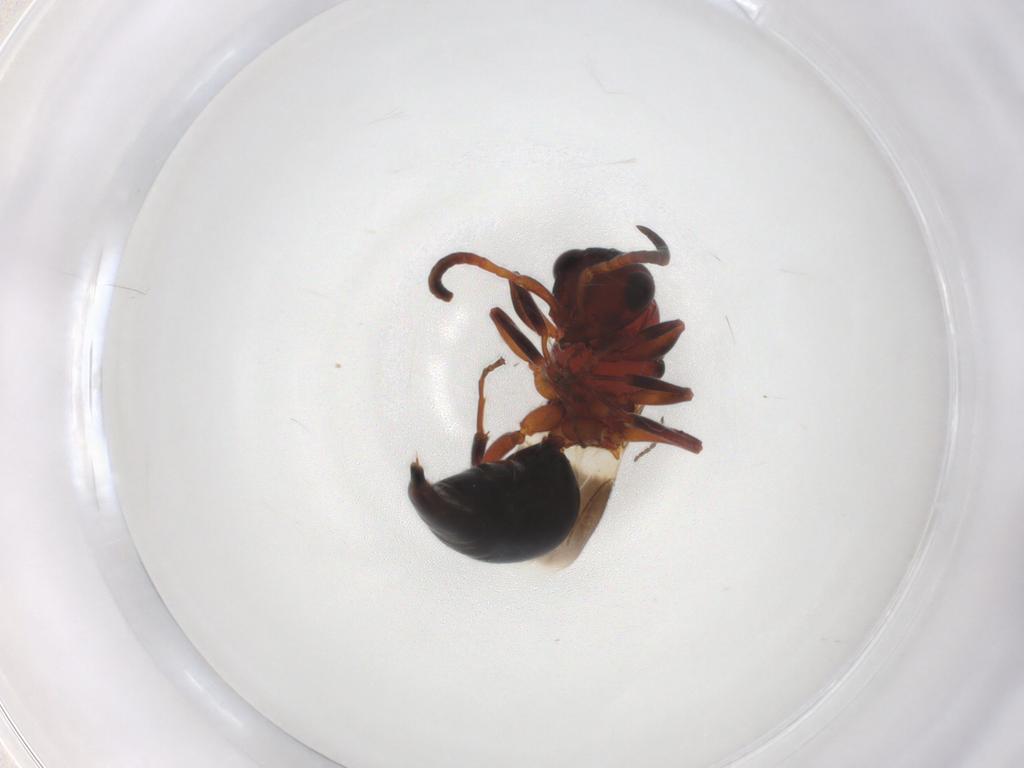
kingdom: Animalia
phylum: Arthropoda
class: Insecta
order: Hymenoptera
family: Bethylidae
